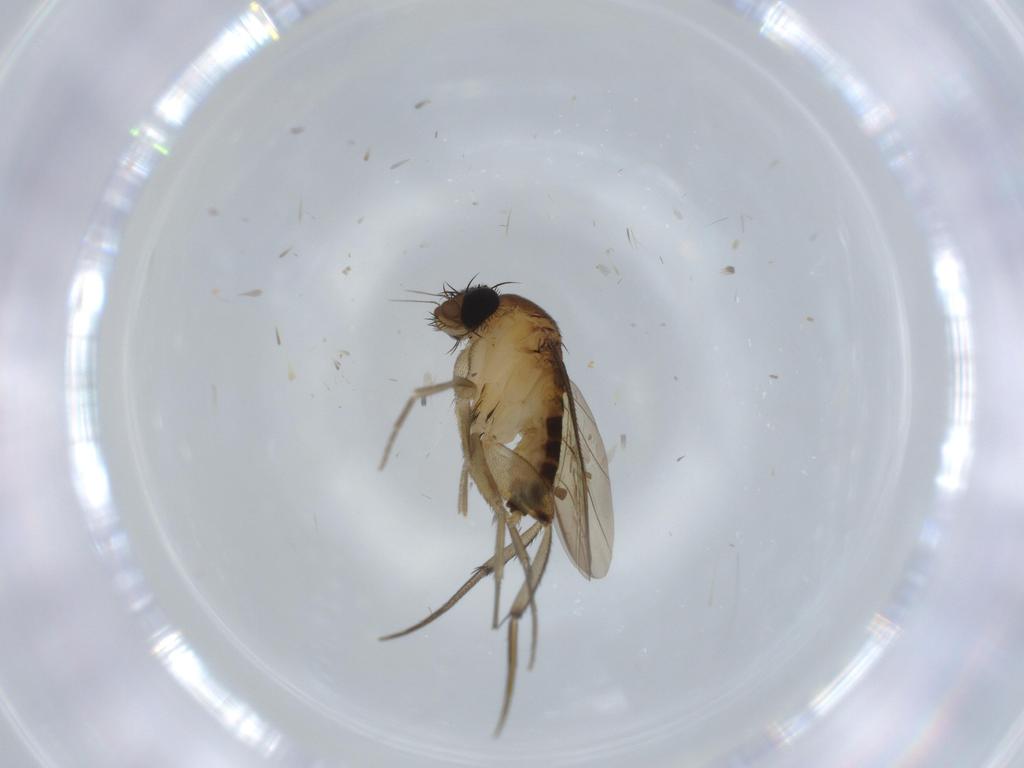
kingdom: Animalia
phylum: Arthropoda
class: Insecta
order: Diptera
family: Phoridae
